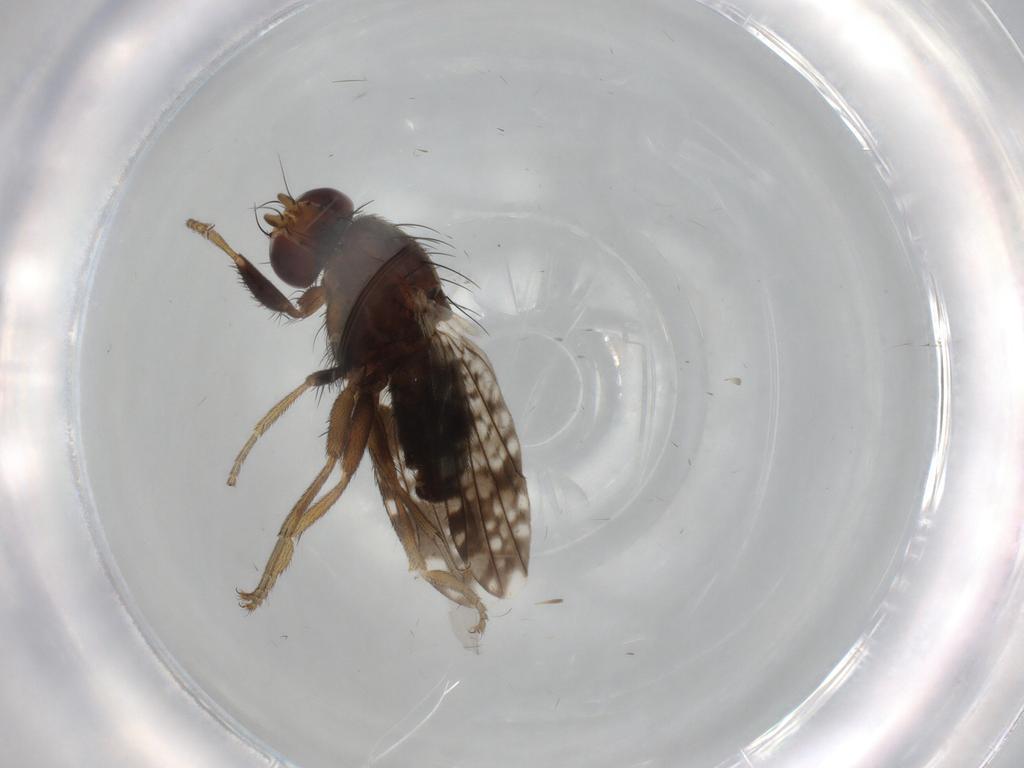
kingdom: Animalia
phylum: Arthropoda
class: Insecta
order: Diptera
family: Tephritidae
